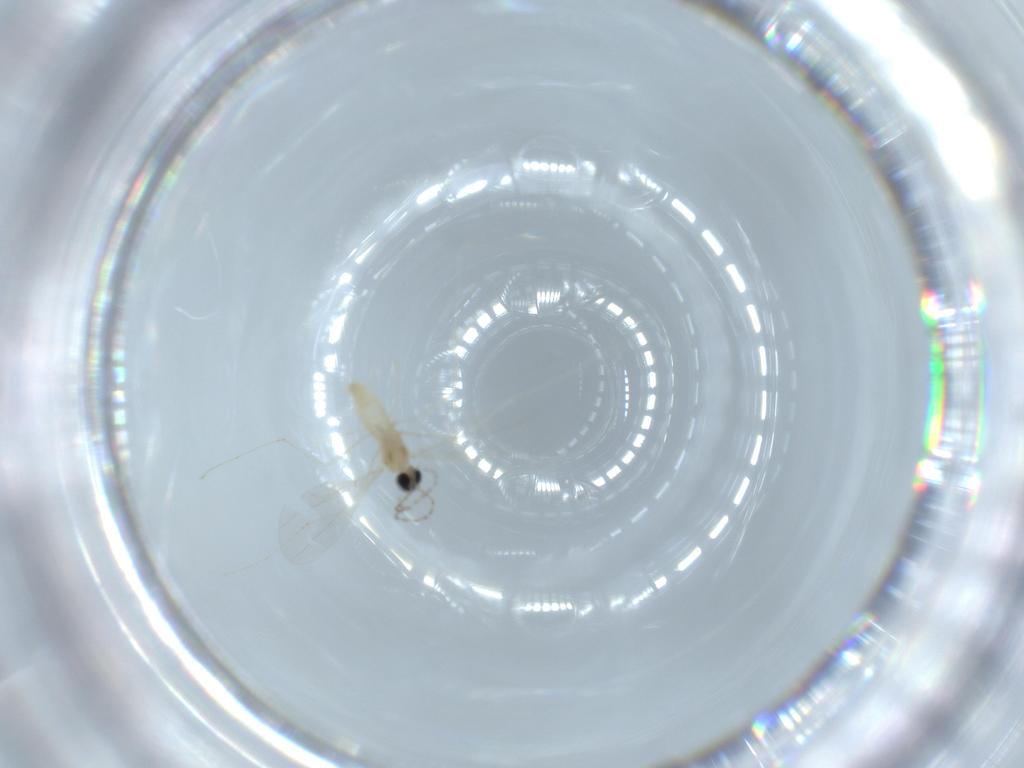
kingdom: Animalia
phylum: Arthropoda
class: Insecta
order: Diptera
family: Cecidomyiidae
